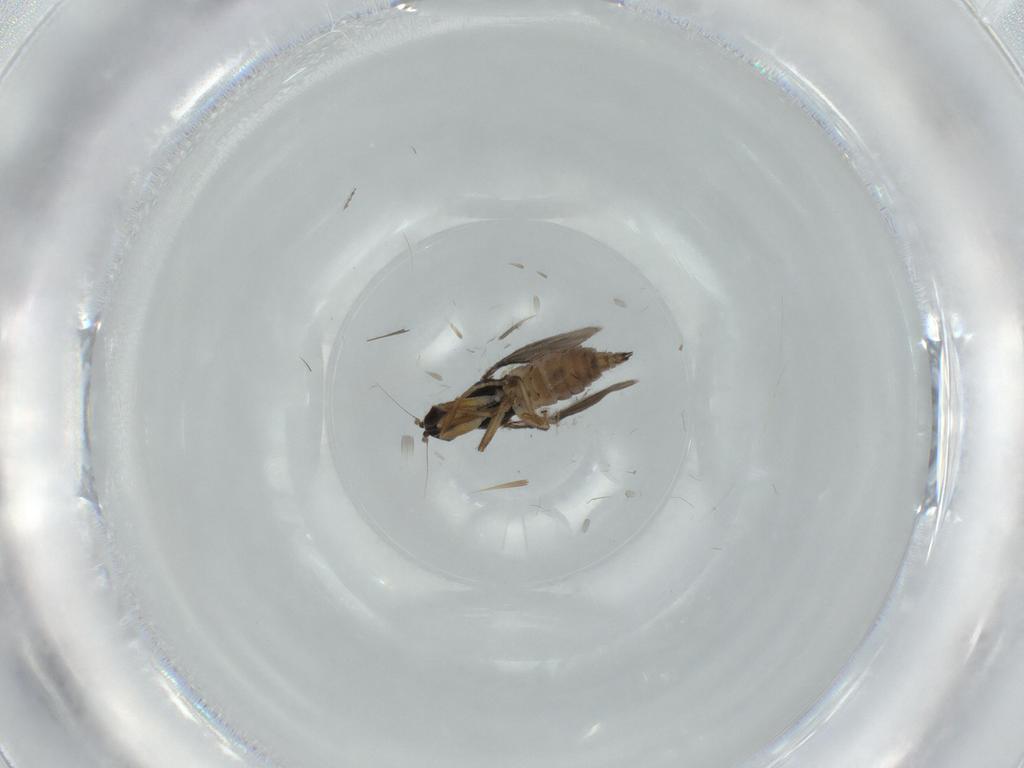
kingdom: Animalia
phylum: Arthropoda
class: Insecta
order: Diptera
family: Hybotidae
